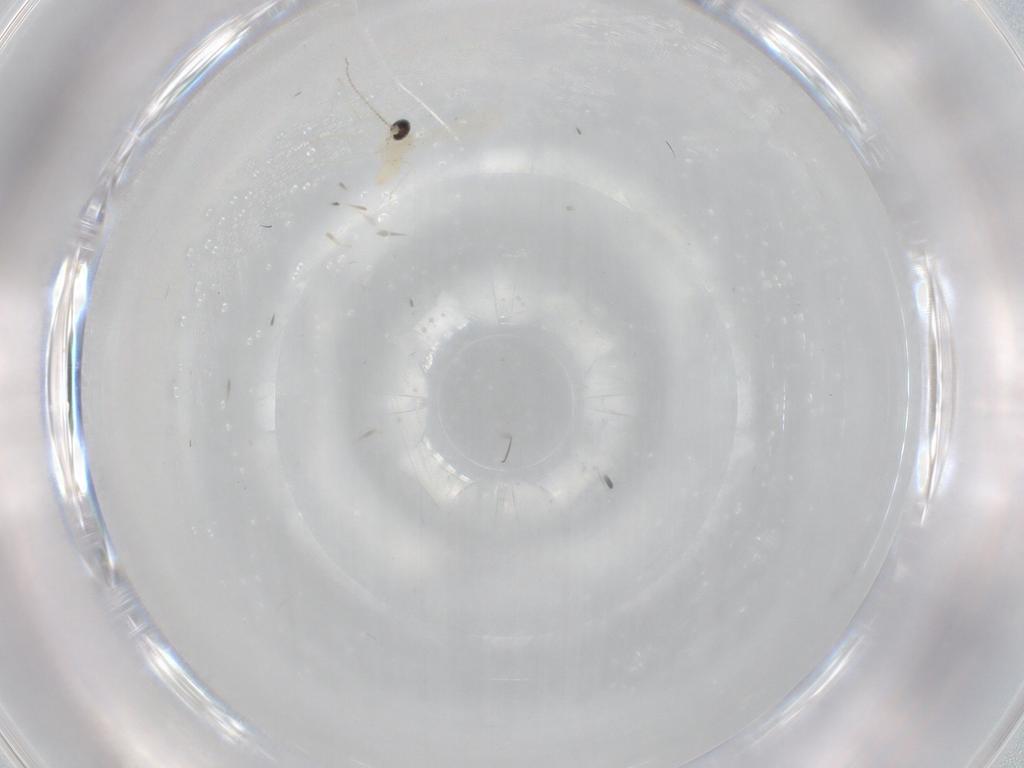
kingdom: Animalia
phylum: Arthropoda
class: Insecta
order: Diptera
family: Cecidomyiidae
